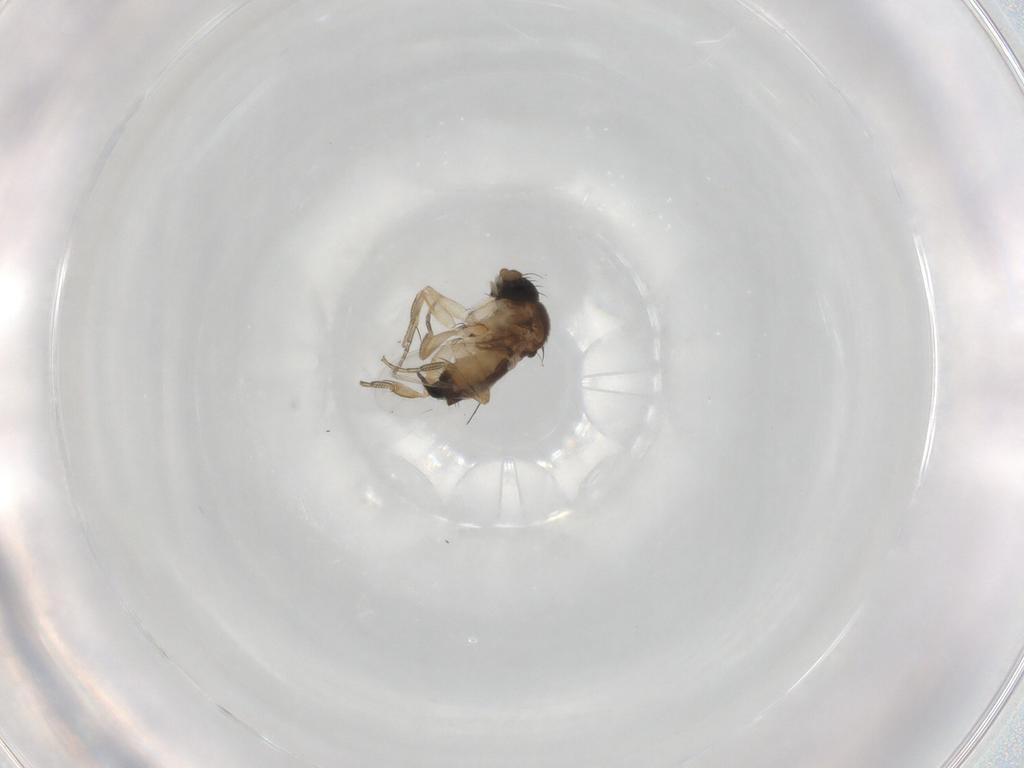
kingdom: Animalia
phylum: Arthropoda
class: Insecta
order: Diptera
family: Phoridae
